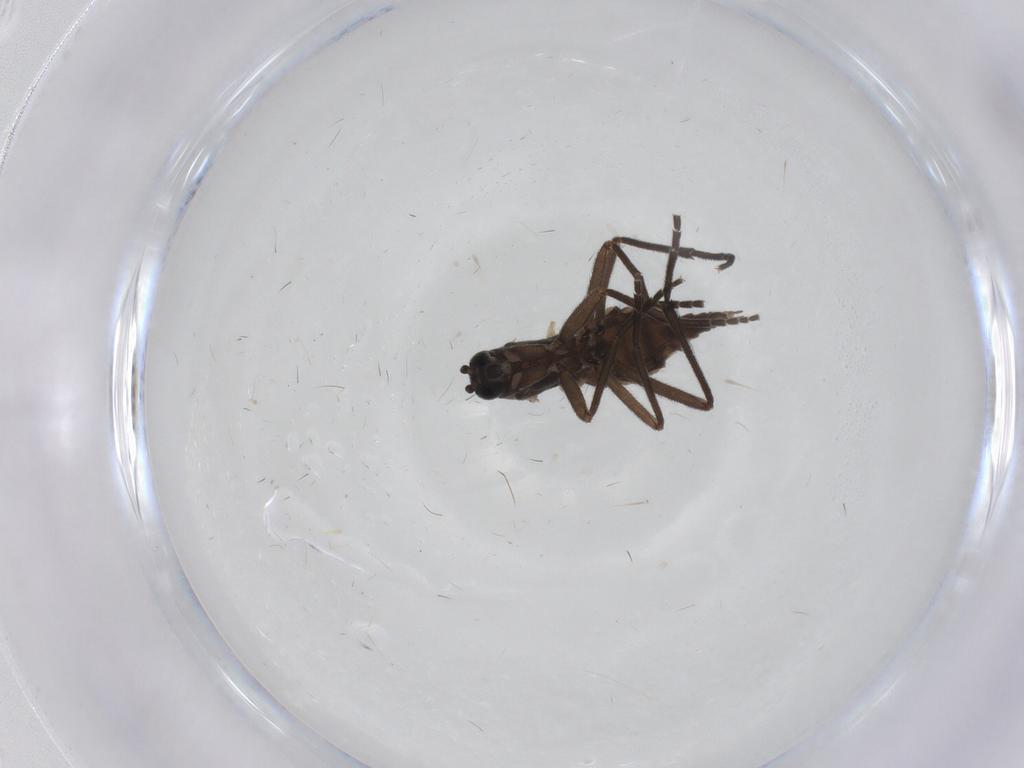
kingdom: Animalia
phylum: Arthropoda
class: Insecta
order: Diptera
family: Sciaridae
